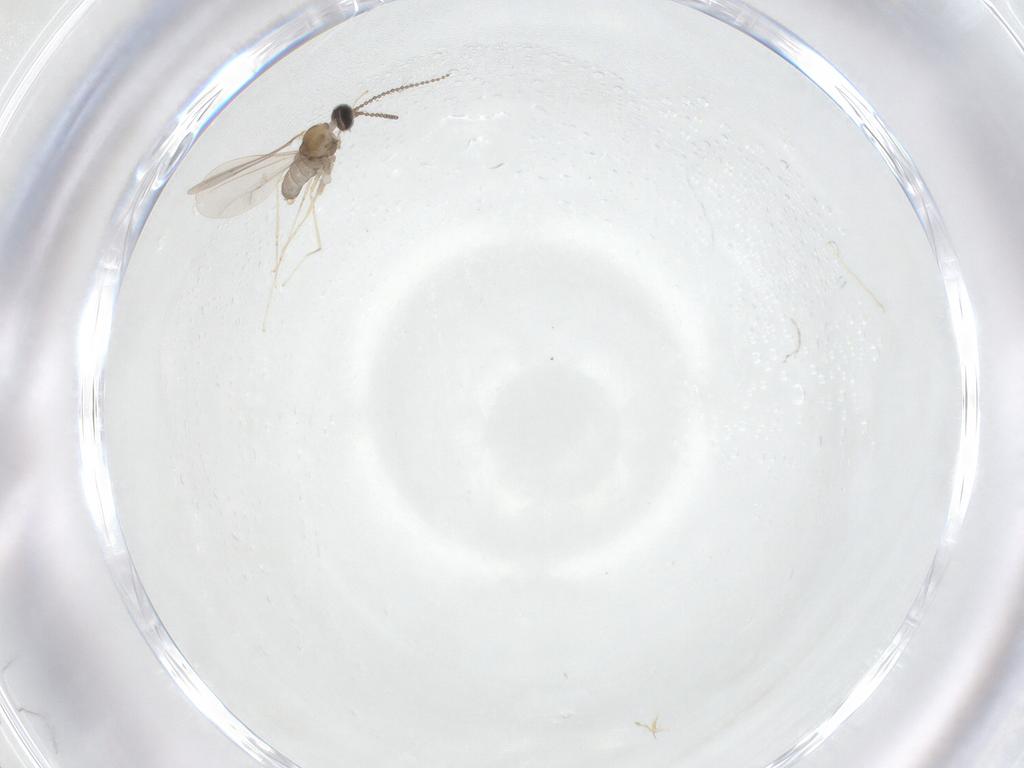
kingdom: Animalia
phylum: Arthropoda
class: Insecta
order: Diptera
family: Cecidomyiidae
